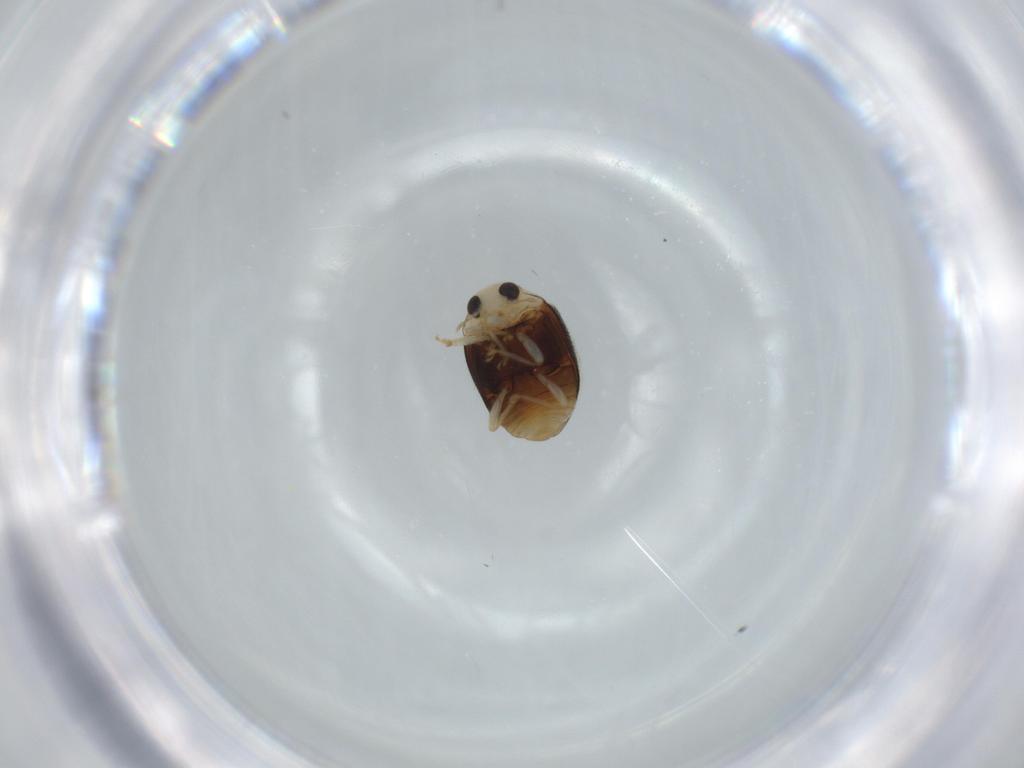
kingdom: Animalia
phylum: Arthropoda
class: Insecta
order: Coleoptera
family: Coccinellidae
